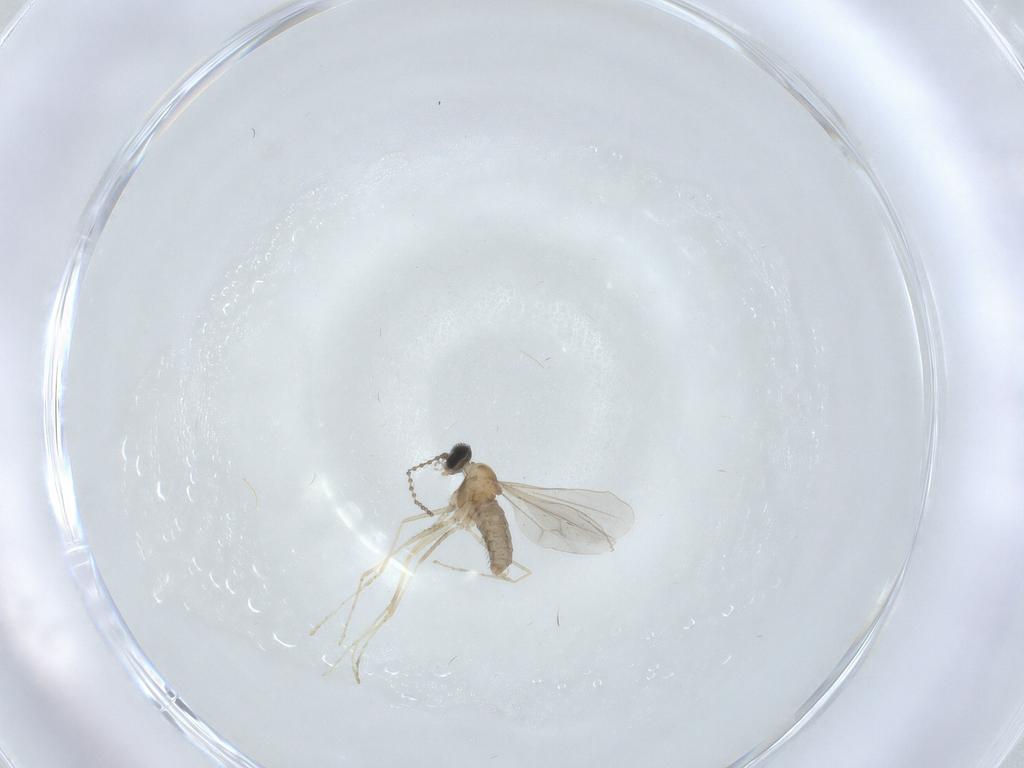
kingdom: Animalia
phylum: Arthropoda
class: Insecta
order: Diptera
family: Cecidomyiidae
